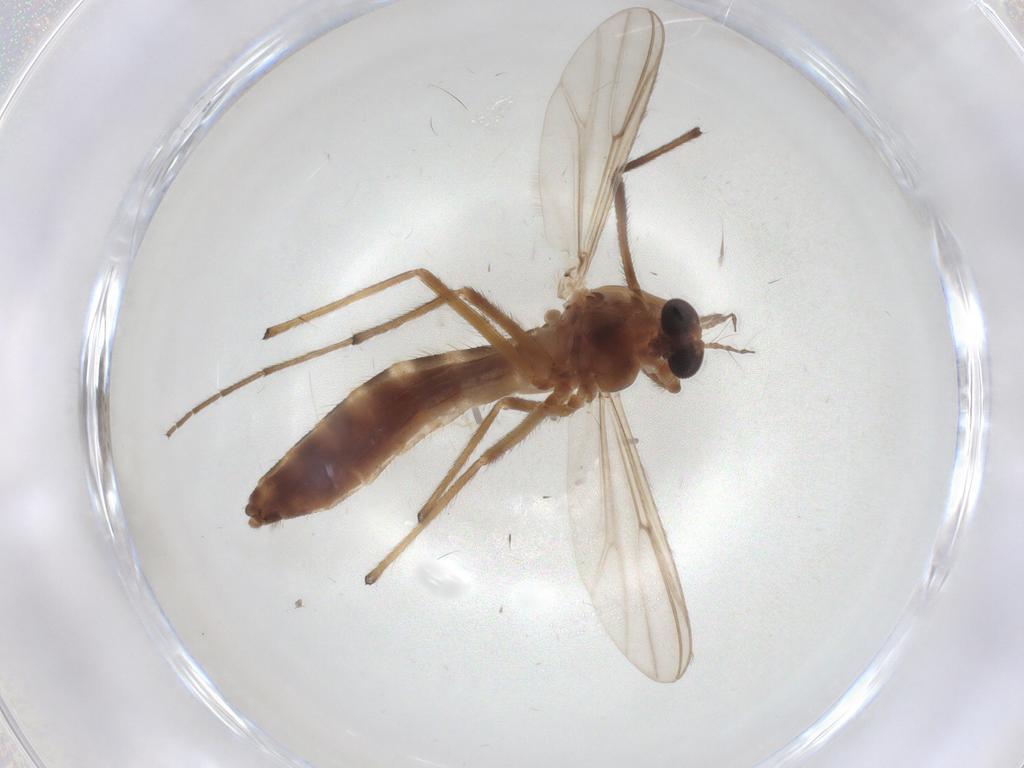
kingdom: Animalia
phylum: Arthropoda
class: Insecta
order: Diptera
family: Chironomidae
